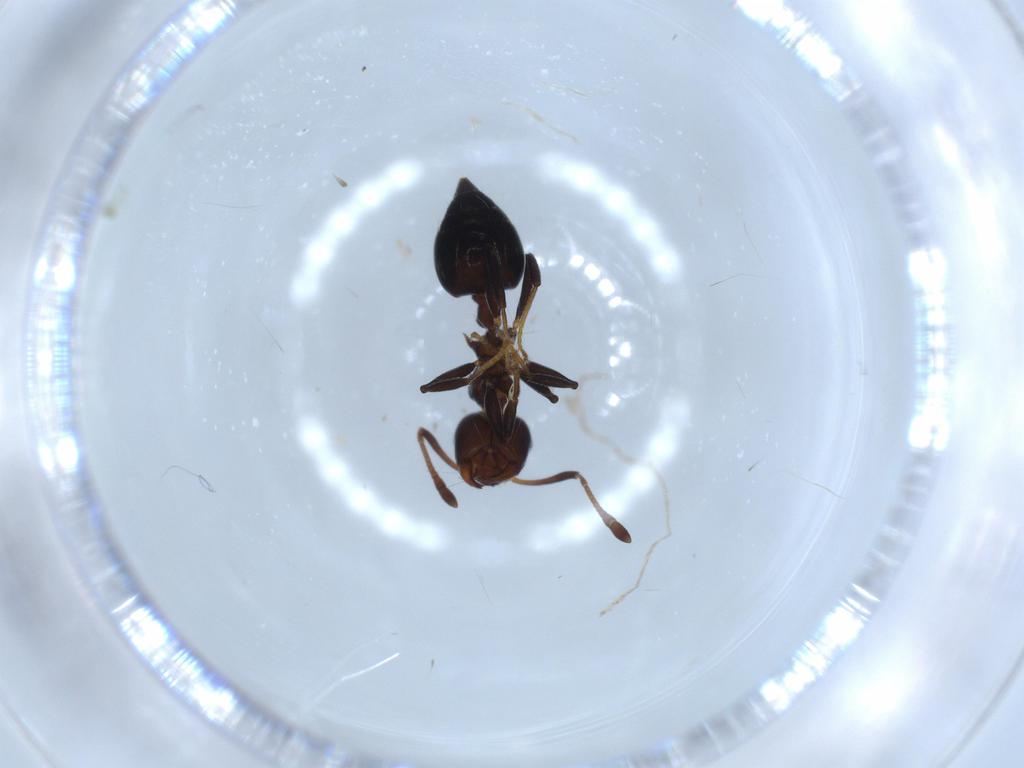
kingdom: Animalia
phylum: Arthropoda
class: Insecta
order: Hymenoptera
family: Formicidae
